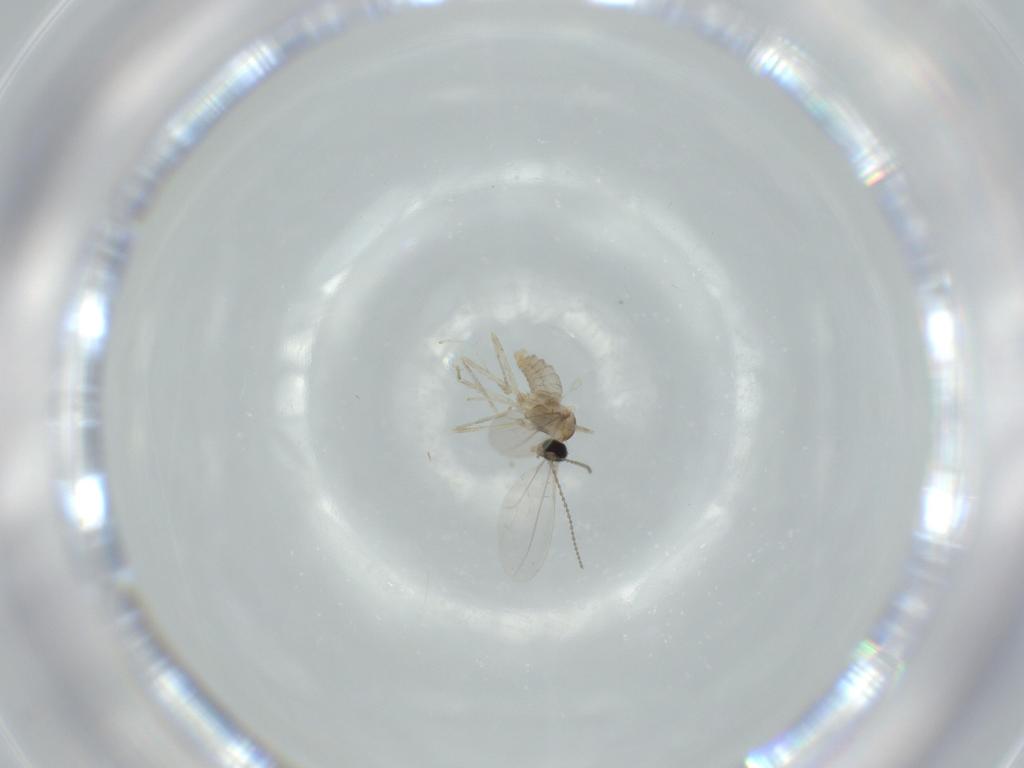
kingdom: Animalia
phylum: Arthropoda
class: Insecta
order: Diptera
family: Cecidomyiidae
